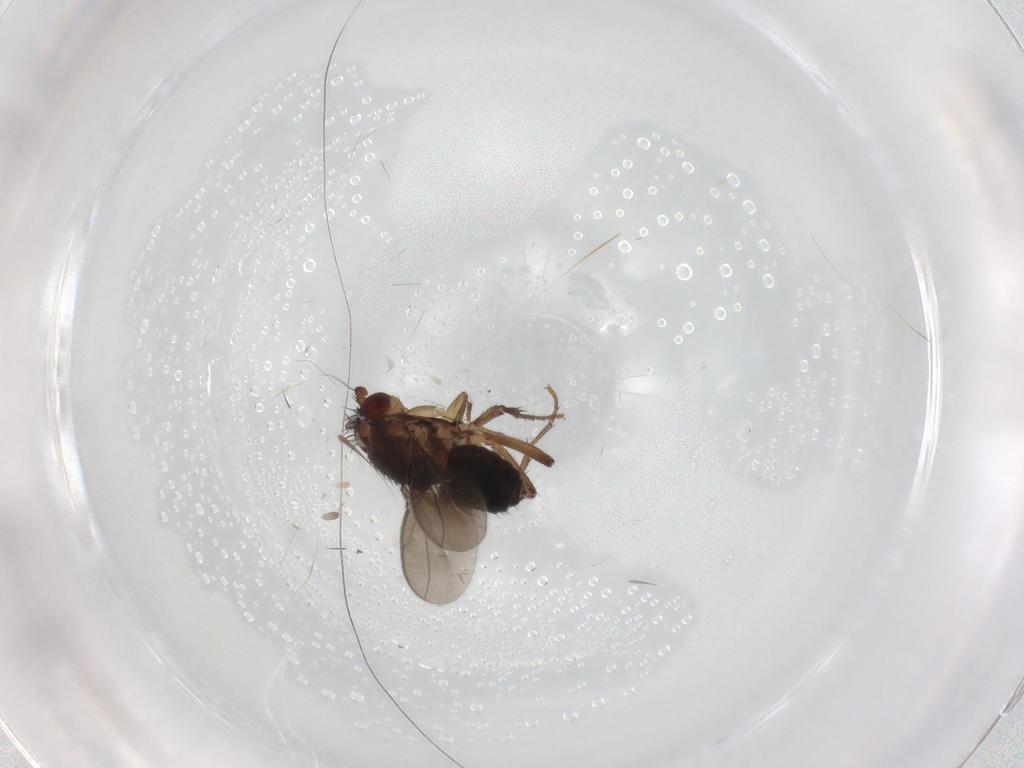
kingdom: Animalia
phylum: Arthropoda
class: Insecta
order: Diptera
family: Sphaeroceridae
